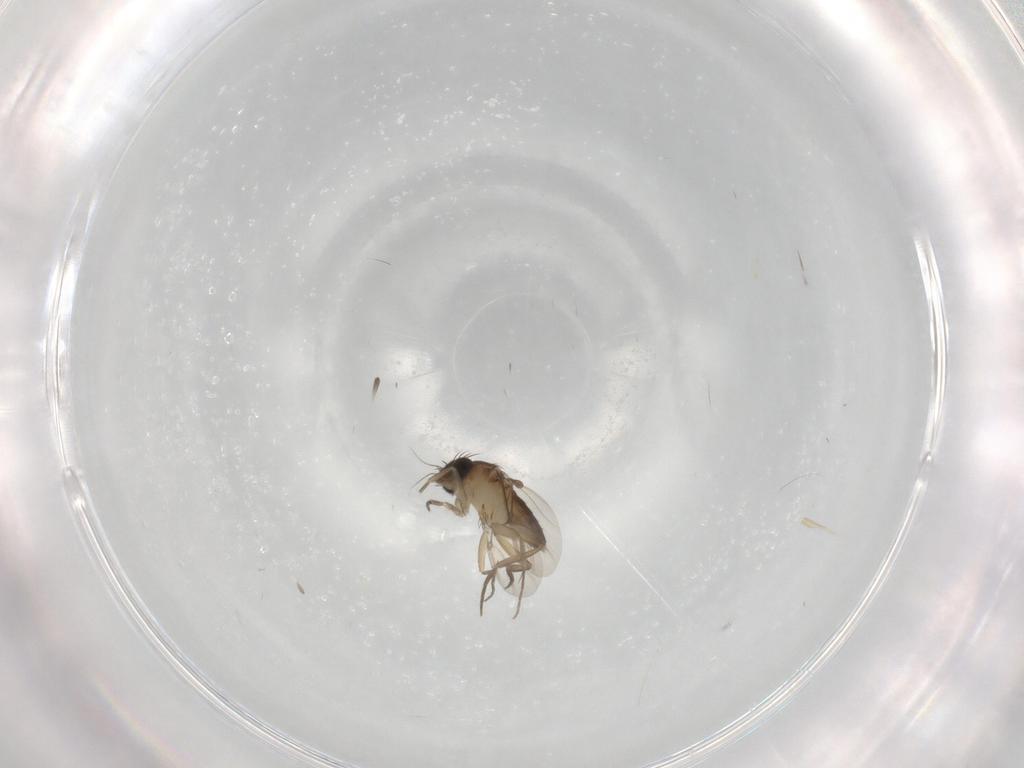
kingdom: Animalia
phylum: Arthropoda
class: Insecta
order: Diptera
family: Phoridae
